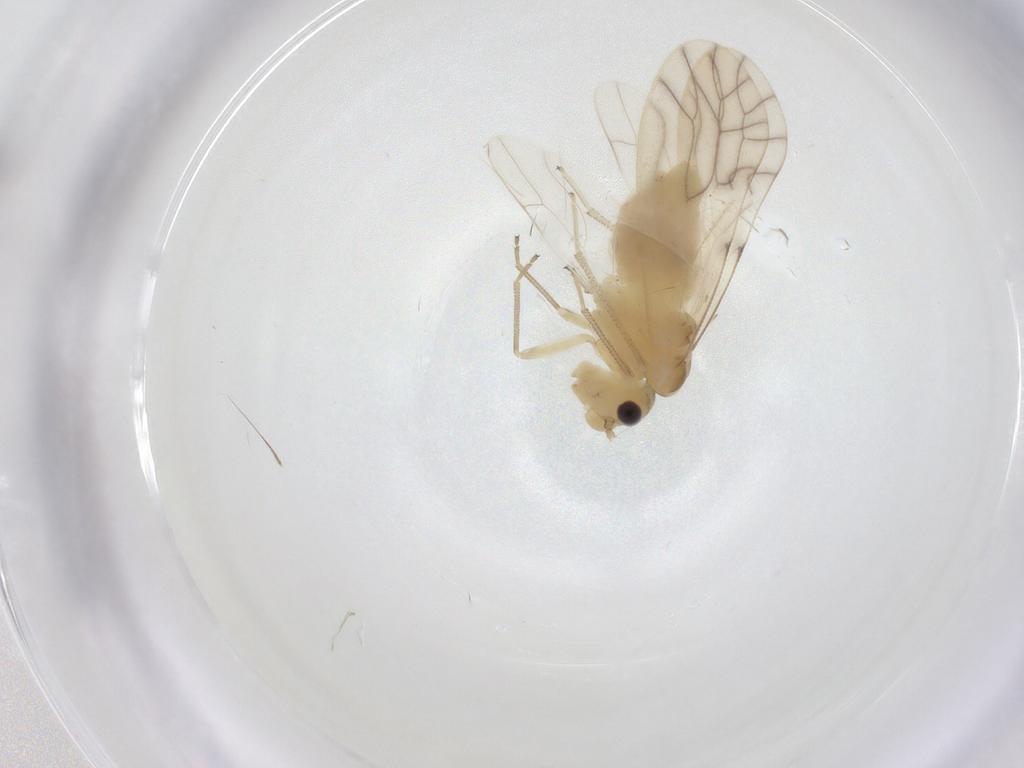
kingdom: Animalia
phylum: Arthropoda
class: Insecta
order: Psocodea
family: Caeciliusidae
